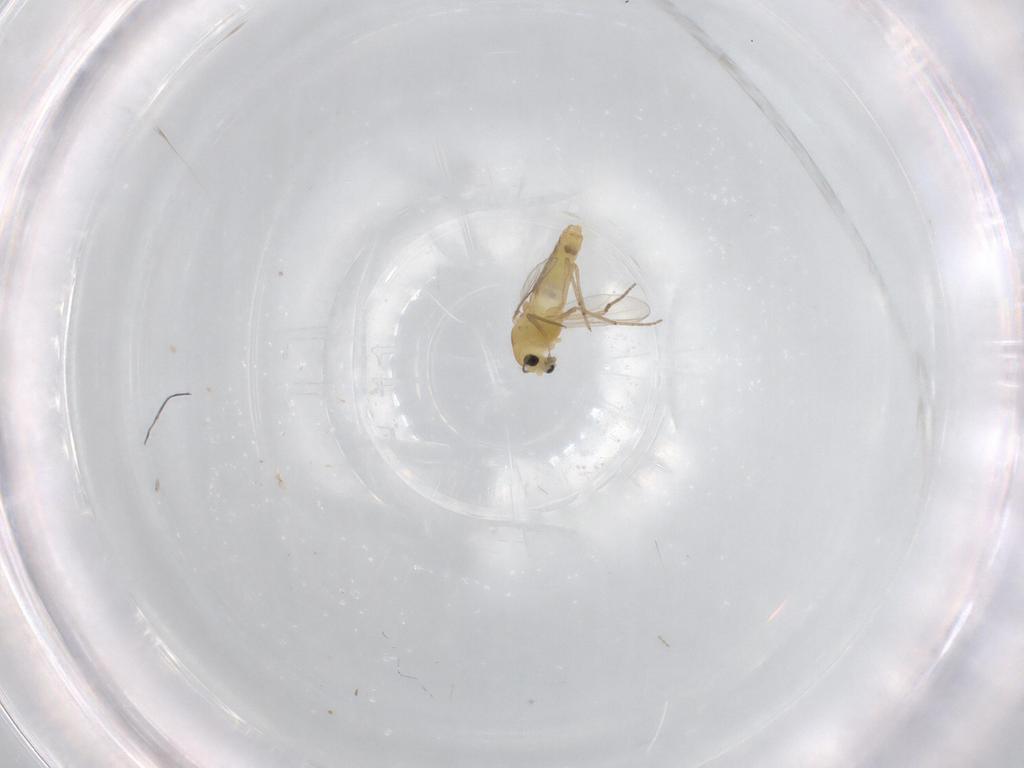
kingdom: Animalia
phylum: Arthropoda
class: Insecta
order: Diptera
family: Chironomidae
